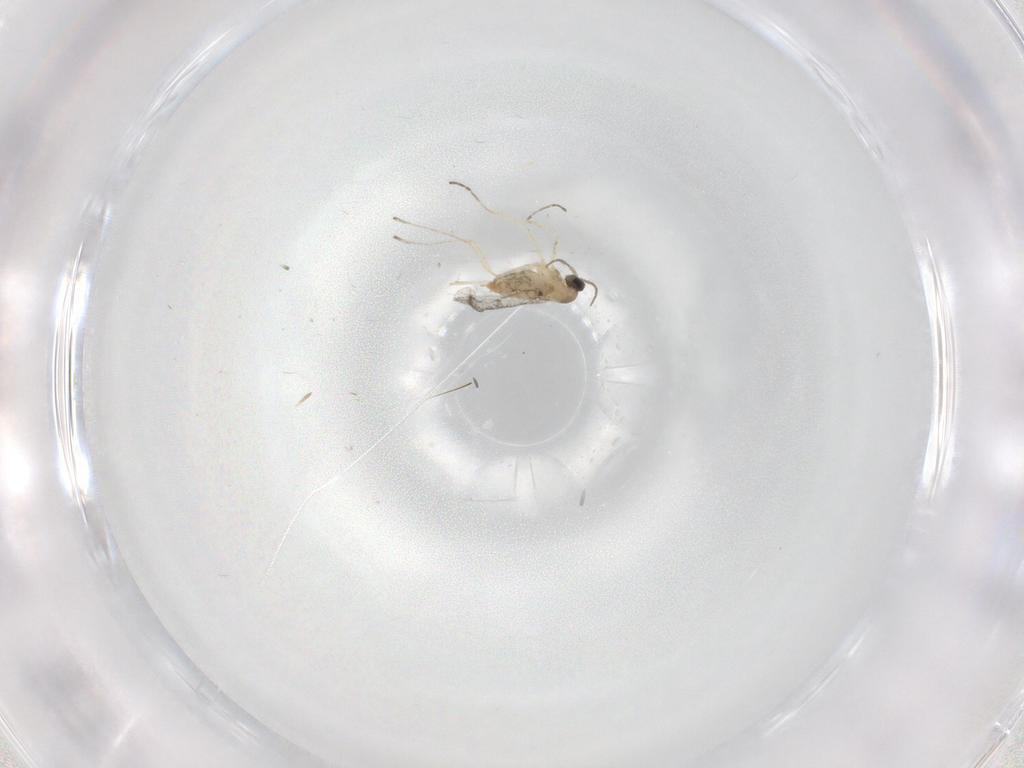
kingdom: Animalia
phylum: Arthropoda
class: Insecta
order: Diptera
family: Cecidomyiidae
